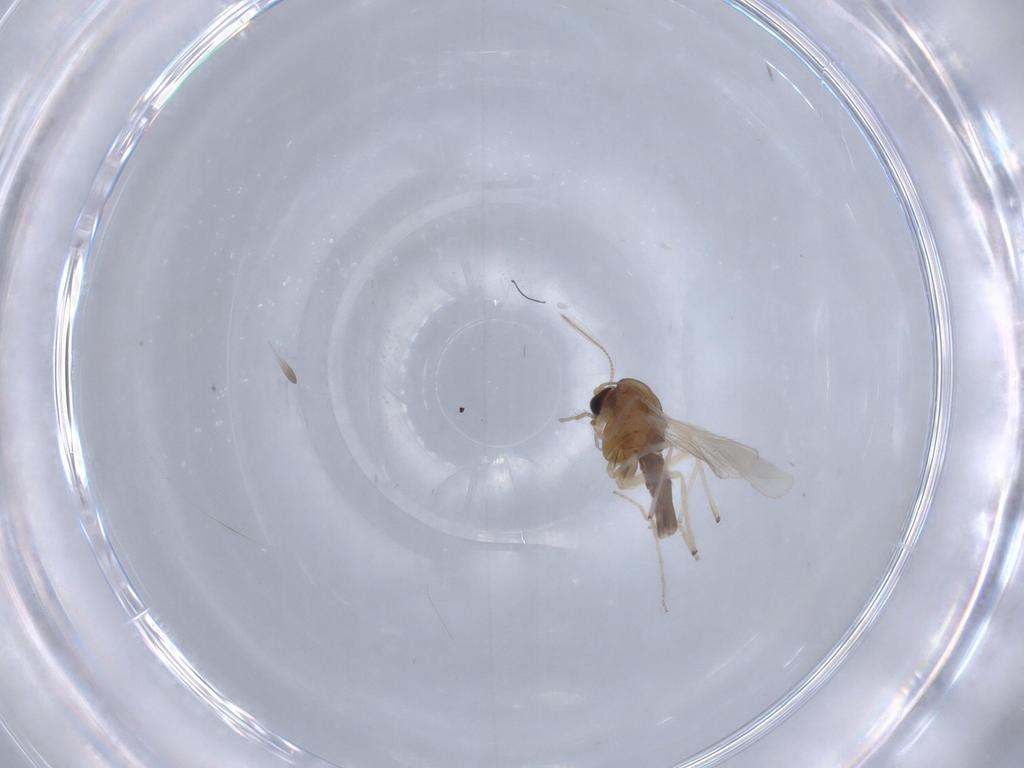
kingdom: Animalia
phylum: Arthropoda
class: Insecta
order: Diptera
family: Chironomidae
